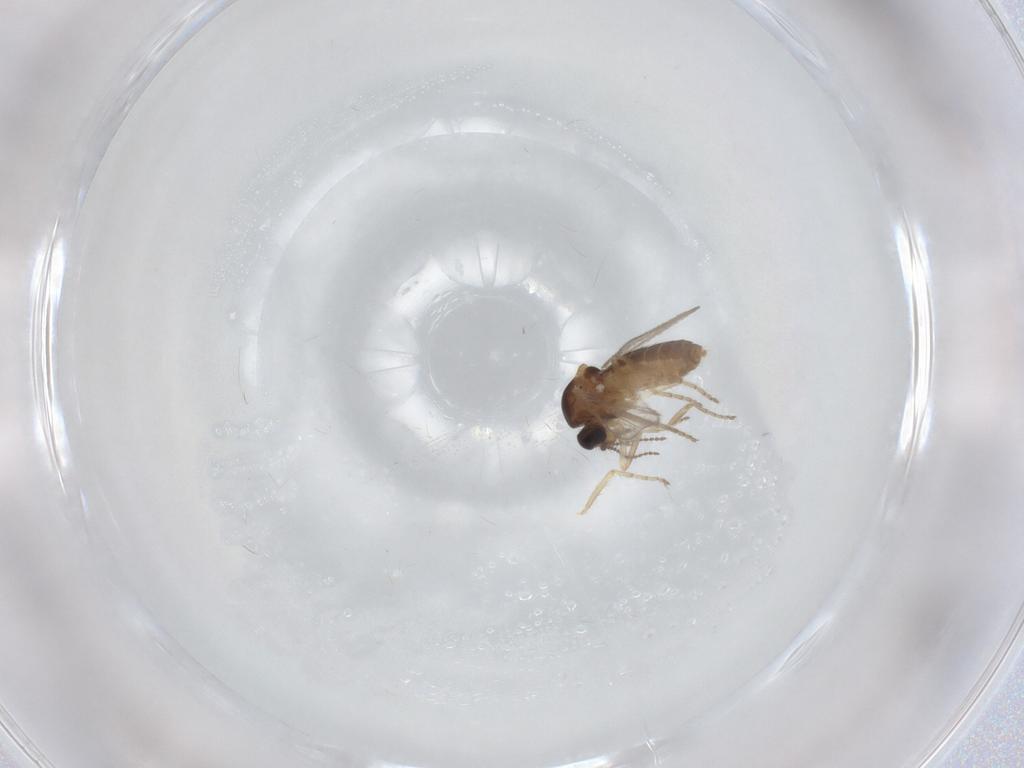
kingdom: Animalia
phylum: Arthropoda
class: Insecta
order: Diptera
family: Ceratopogonidae
